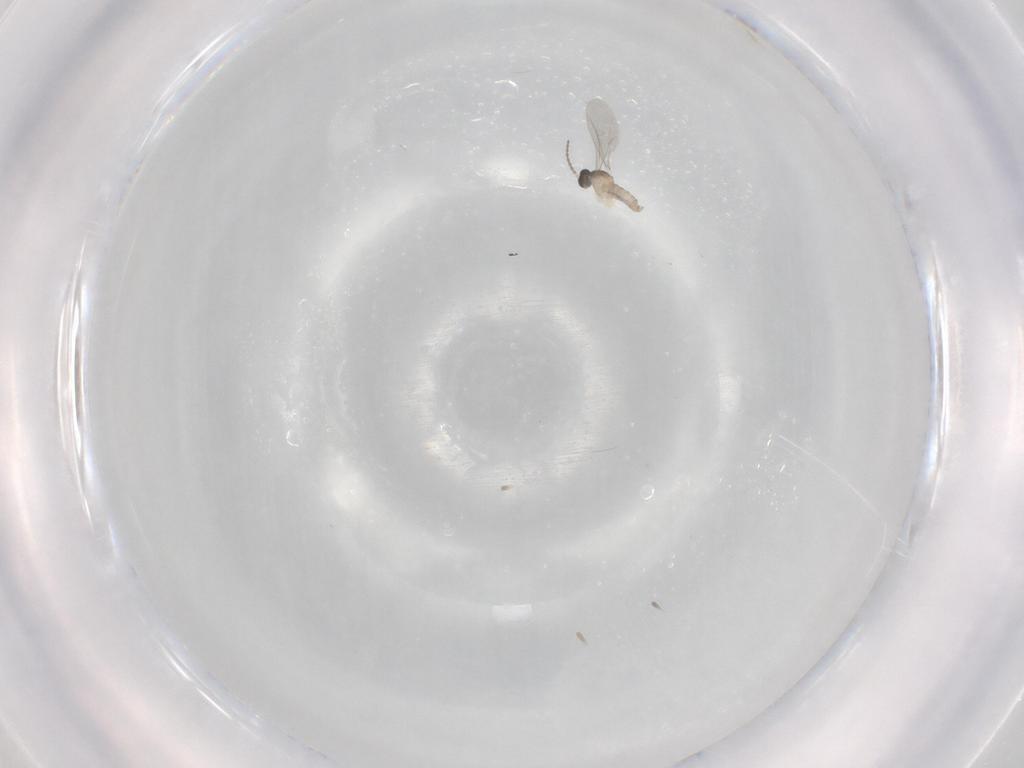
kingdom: Animalia
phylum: Arthropoda
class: Insecta
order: Diptera
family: Cecidomyiidae
